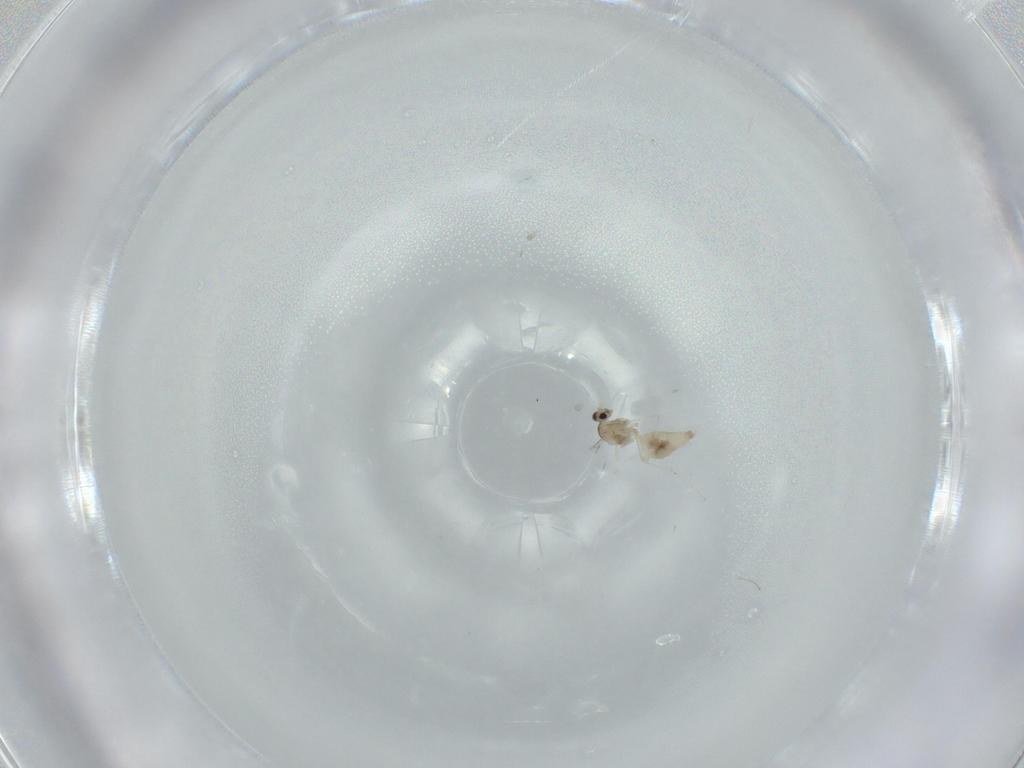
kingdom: Animalia
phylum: Arthropoda
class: Insecta
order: Diptera
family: Cecidomyiidae
